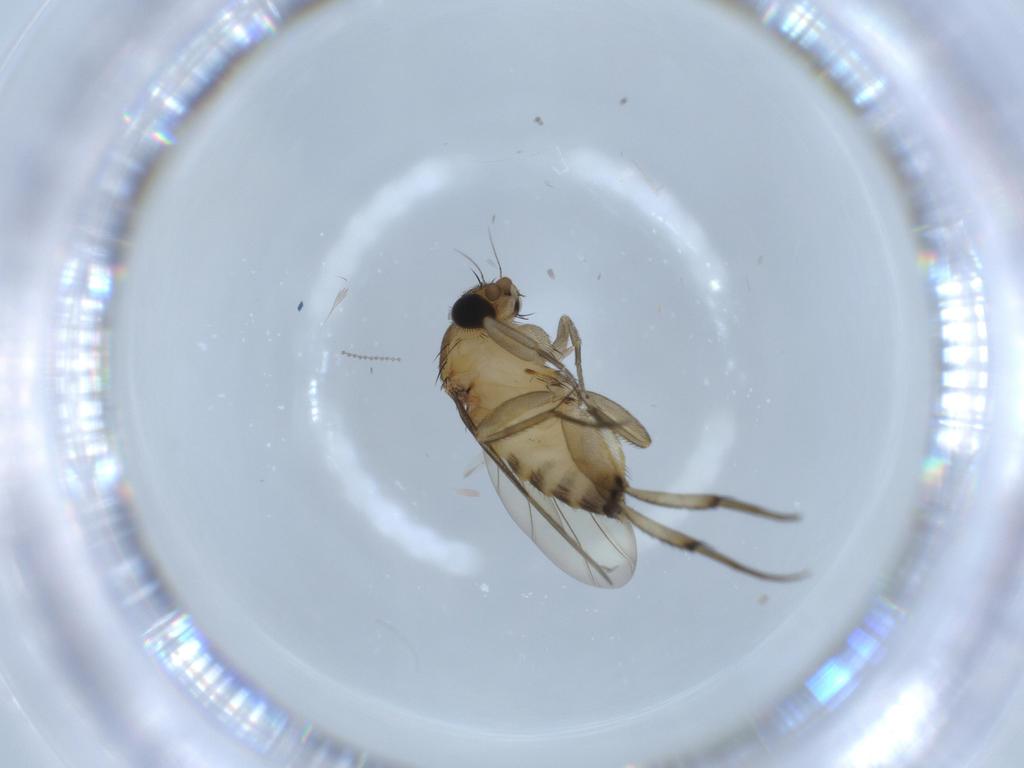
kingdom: Animalia
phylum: Arthropoda
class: Insecta
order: Diptera
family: Phoridae
